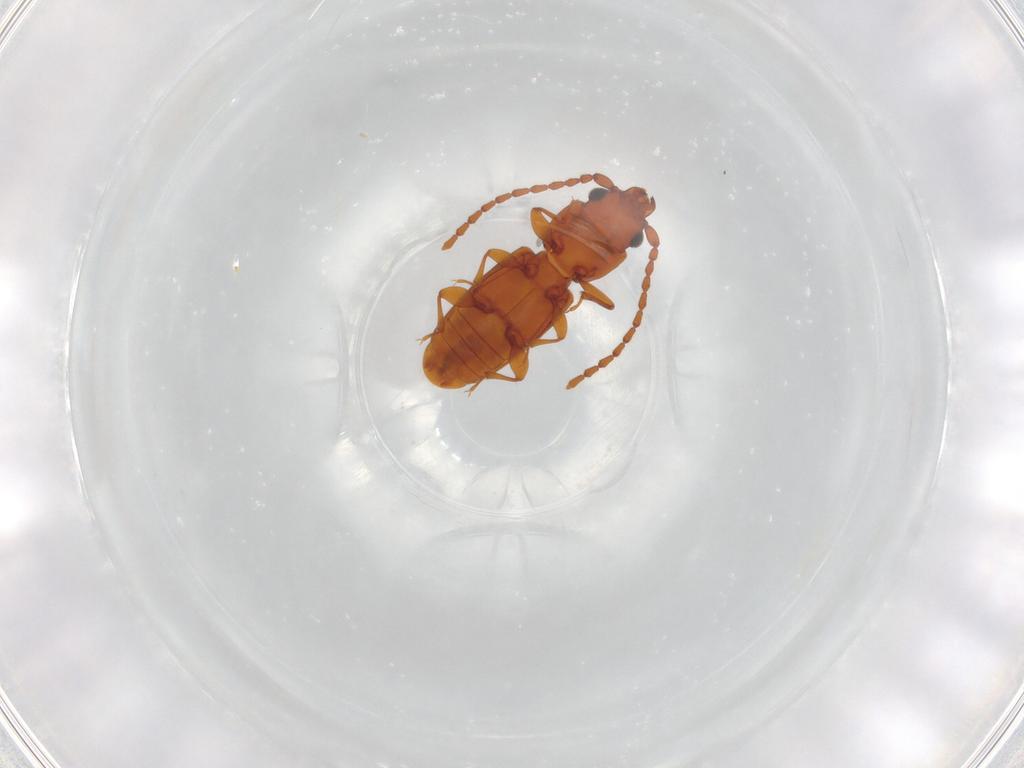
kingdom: Animalia
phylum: Arthropoda
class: Insecta
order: Coleoptera
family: Laemophloeidae
